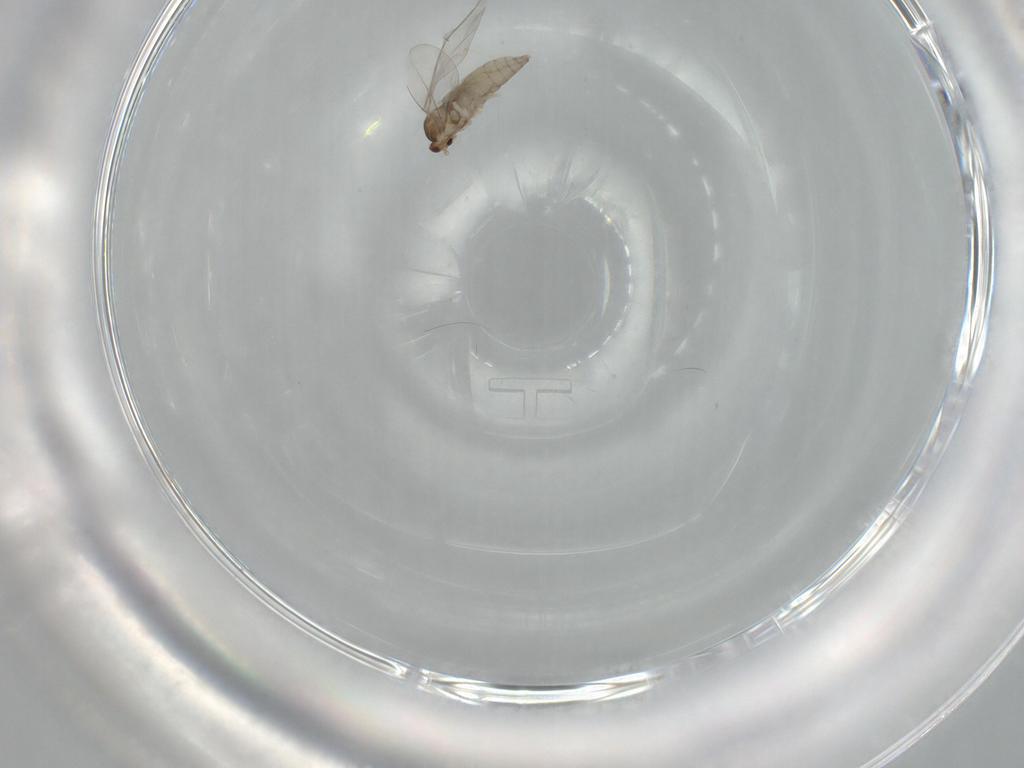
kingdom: Animalia
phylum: Arthropoda
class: Insecta
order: Diptera
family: Cecidomyiidae
